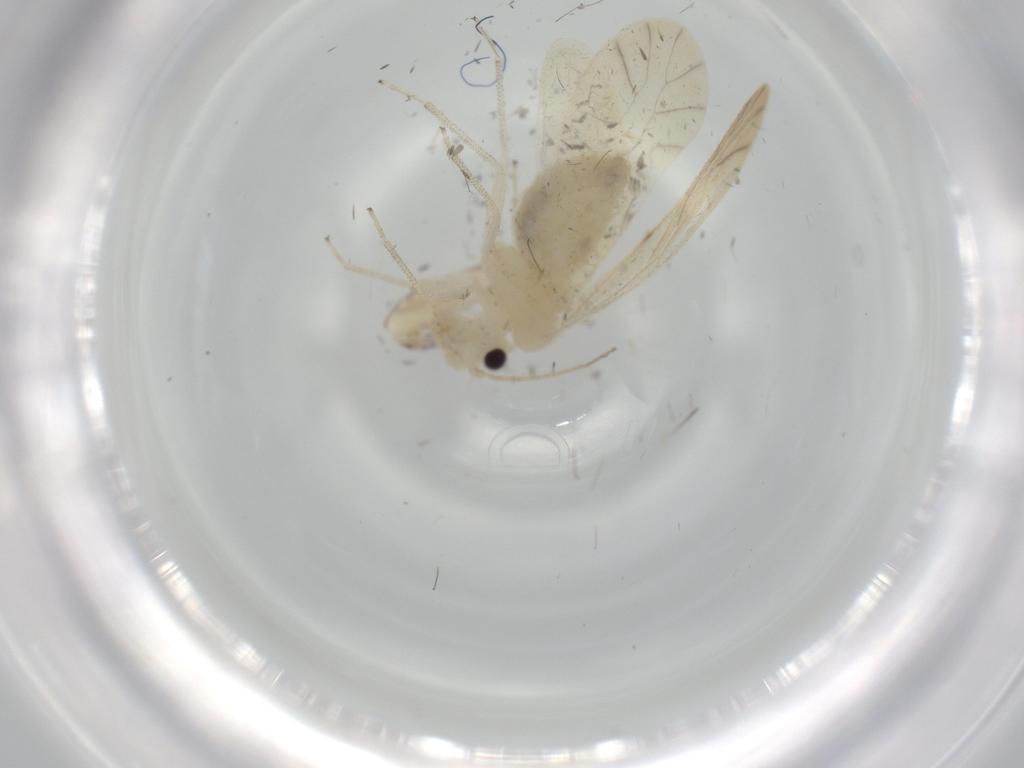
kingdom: Animalia
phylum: Arthropoda
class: Insecta
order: Psocodea
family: Caeciliusidae
